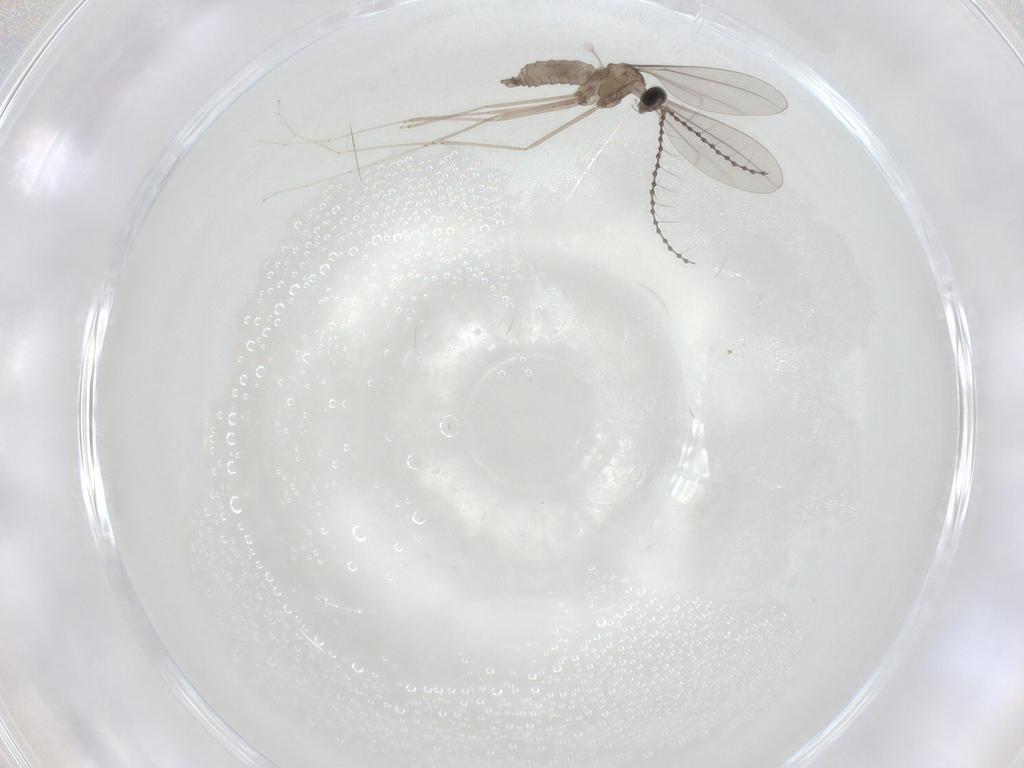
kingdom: Animalia
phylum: Arthropoda
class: Insecta
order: Diptera
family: Cecidomyiidae
